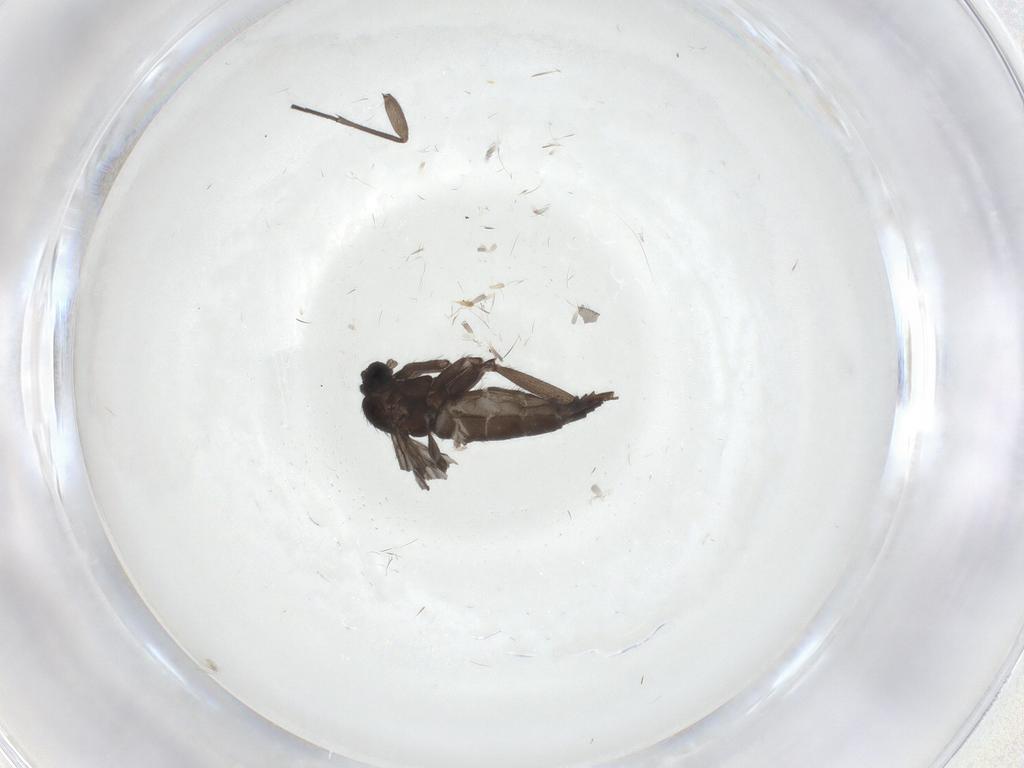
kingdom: Animalia
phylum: Arthropoda
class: Insecta
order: Diptera
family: Sciaridae
